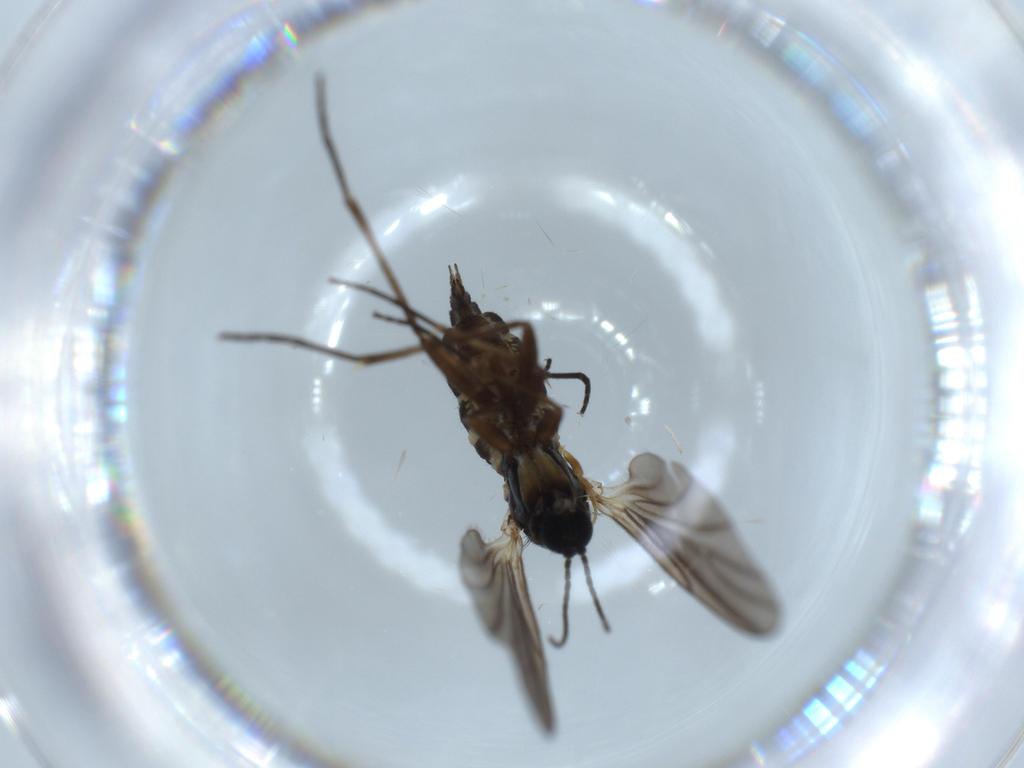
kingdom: Animalia
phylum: Arthropoda
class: Insecta
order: Diptera
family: Sciaridae
